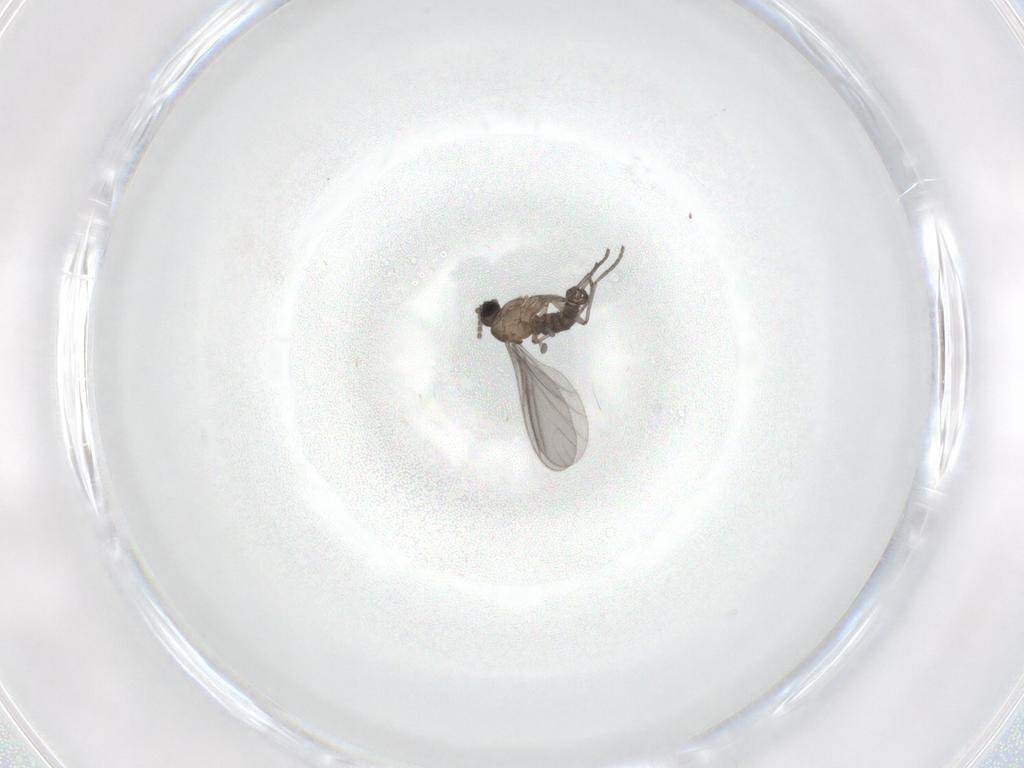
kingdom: Animalia
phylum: Arthropoda
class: Insecta
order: Diptera
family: Sciaridae
